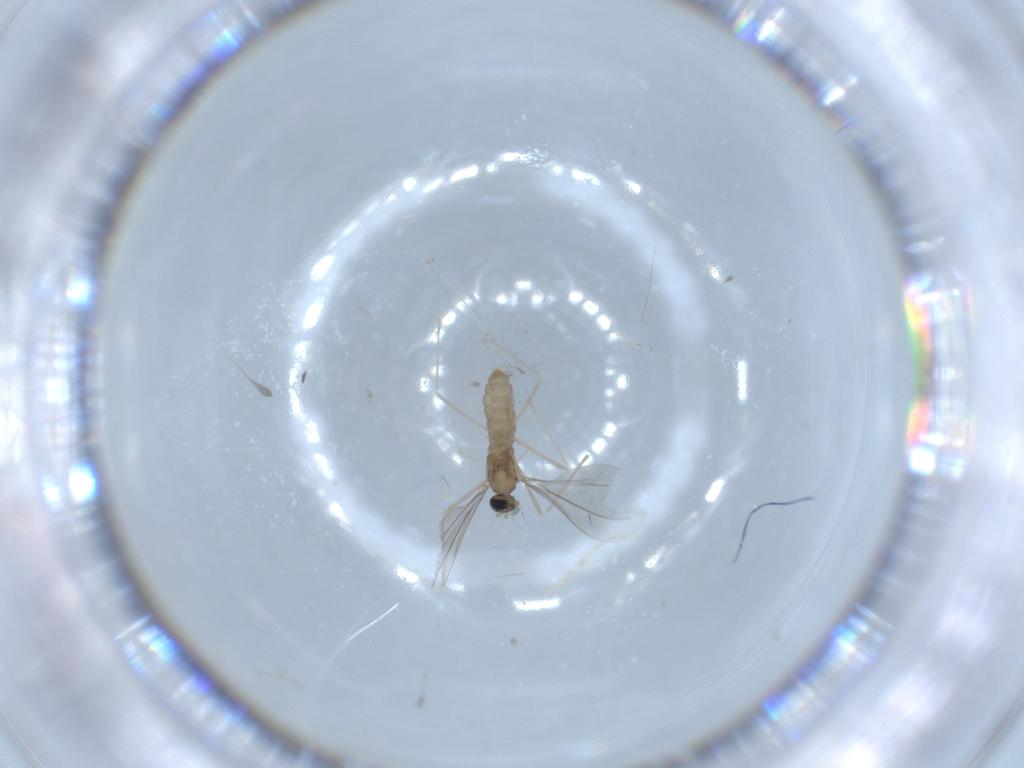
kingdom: Animalia
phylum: Arthropoda
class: Insecta
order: Diptera
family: Cecidomyiidae
